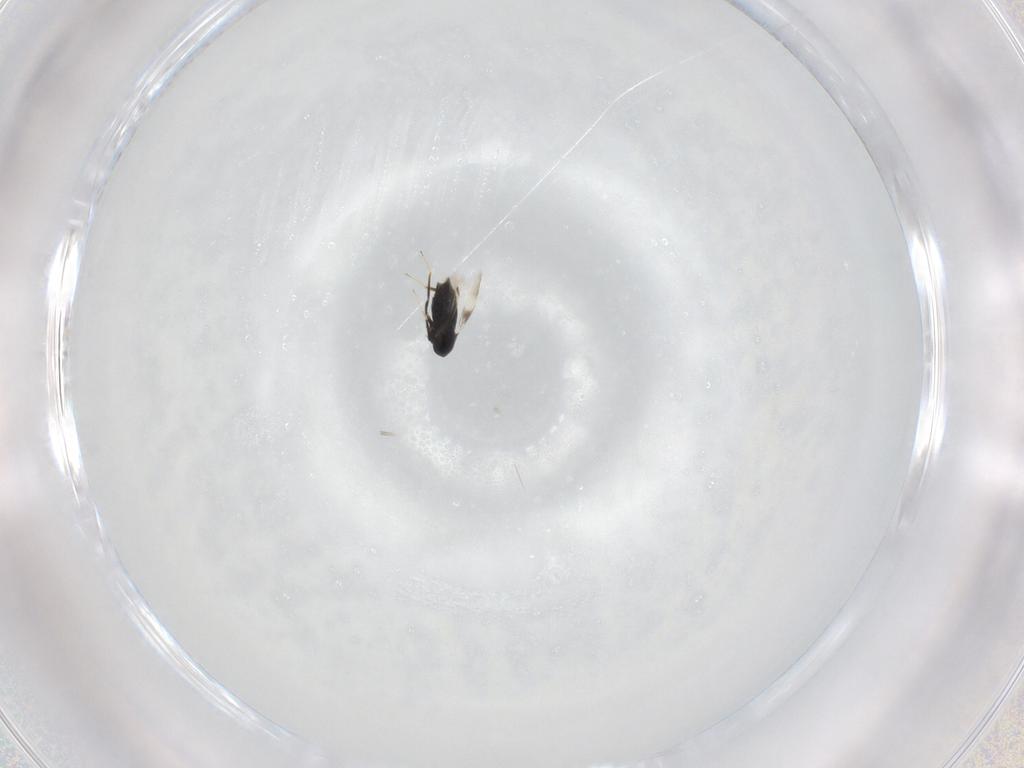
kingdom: Animalia
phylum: Arthropoda
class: Insecta
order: Hymenoptera
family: Signiphoridae
